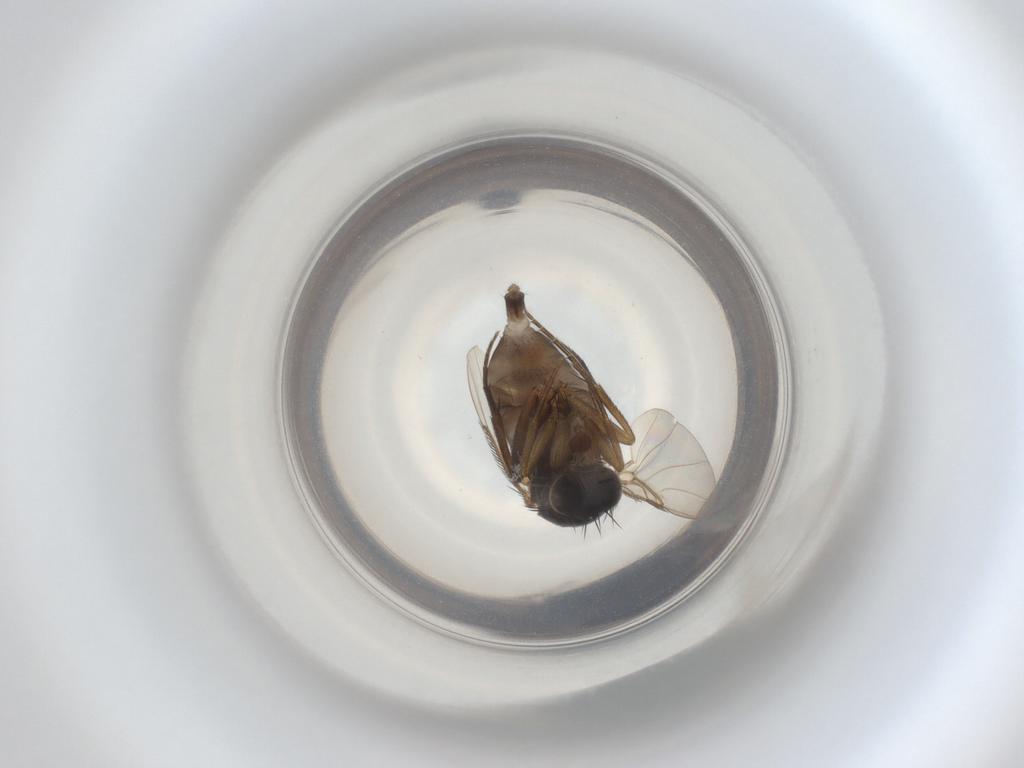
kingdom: Animalia
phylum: Arthropoda
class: Insecta
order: Diptera
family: Phoridae
